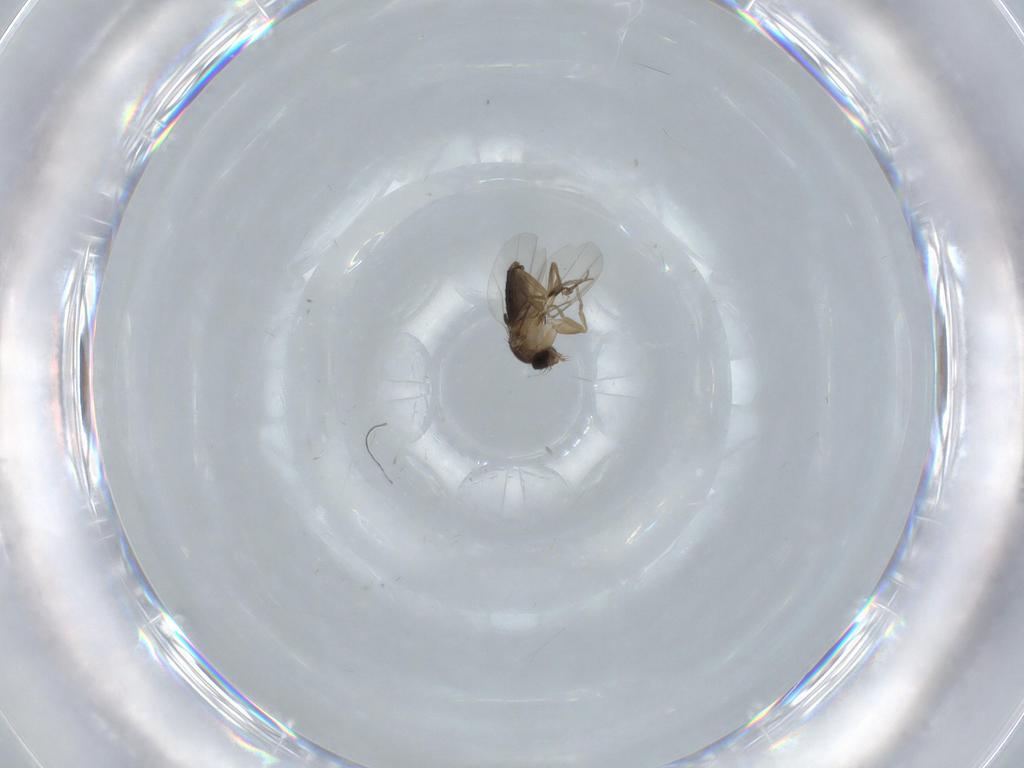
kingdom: Animalia
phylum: Arthropoda
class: Insecta
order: Diptera
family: Phoridae
